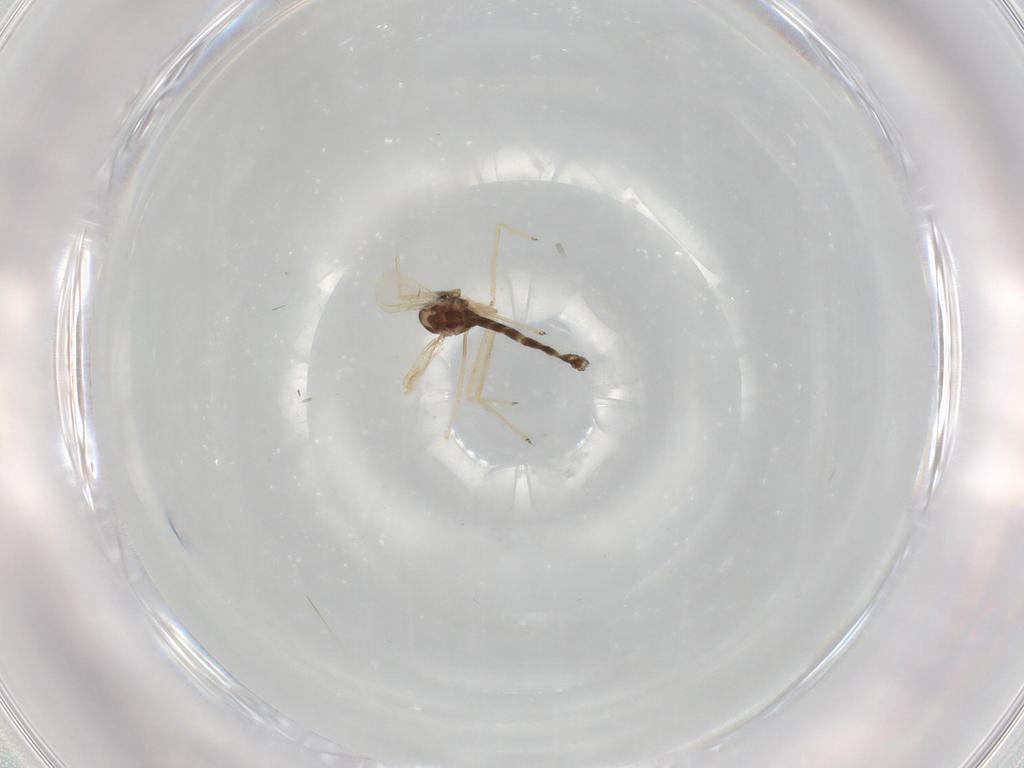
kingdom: Animalia
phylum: Arthropoda
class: Insecta
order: Diptera
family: Chironomidae
